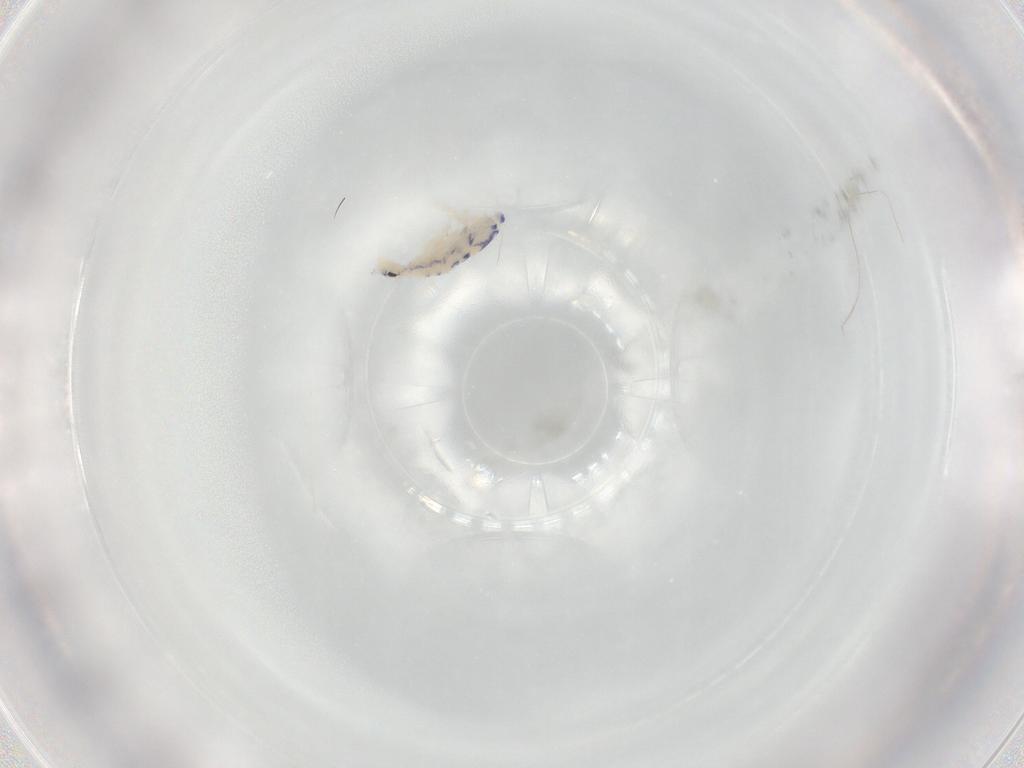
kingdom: Animalia
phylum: Arthropoda
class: Collembola
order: Entomobryomorpha
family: Entomobryidae
